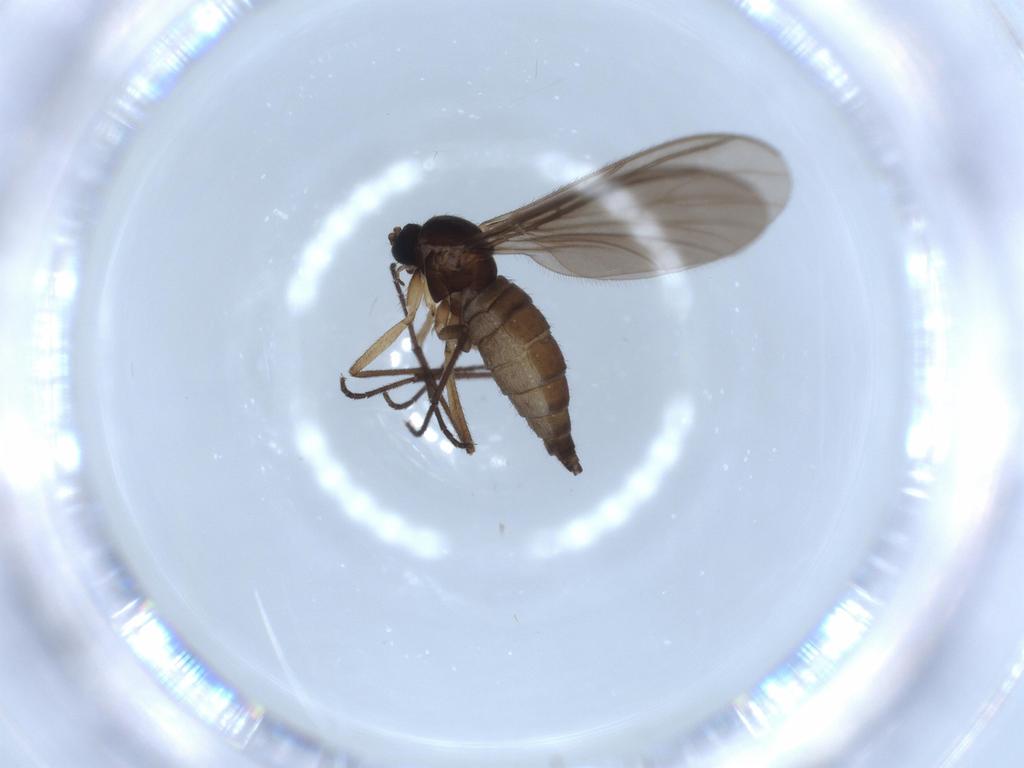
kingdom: Animalia
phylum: Arthropoda
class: Insecta
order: Diptera
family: Sciaridae
